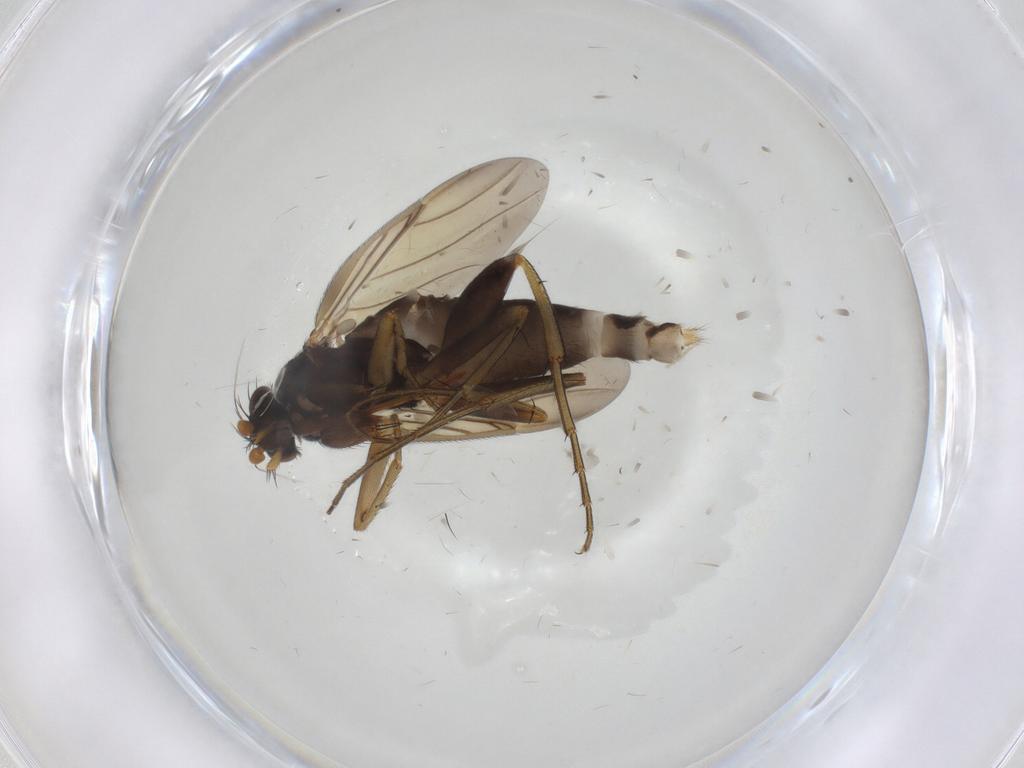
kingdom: Animalia
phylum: Arthropoda
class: Insecta
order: Diptera
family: Phoridae
